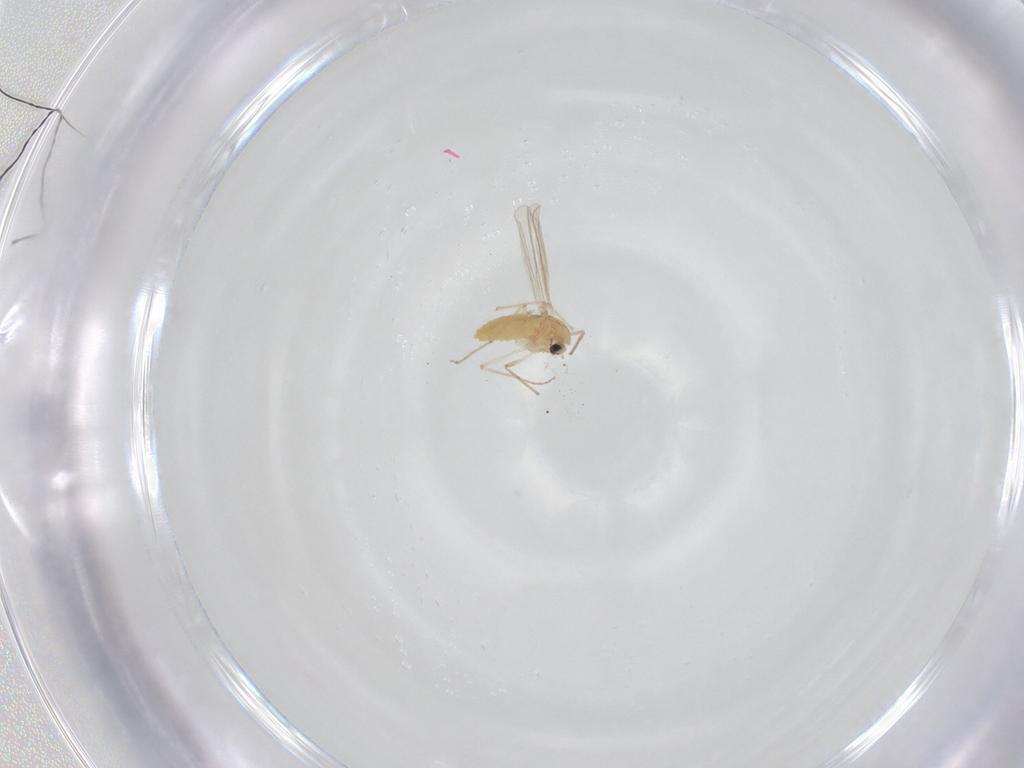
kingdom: Animalia
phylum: Arthropoda
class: Insecta
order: Diptera
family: Chironomidae
